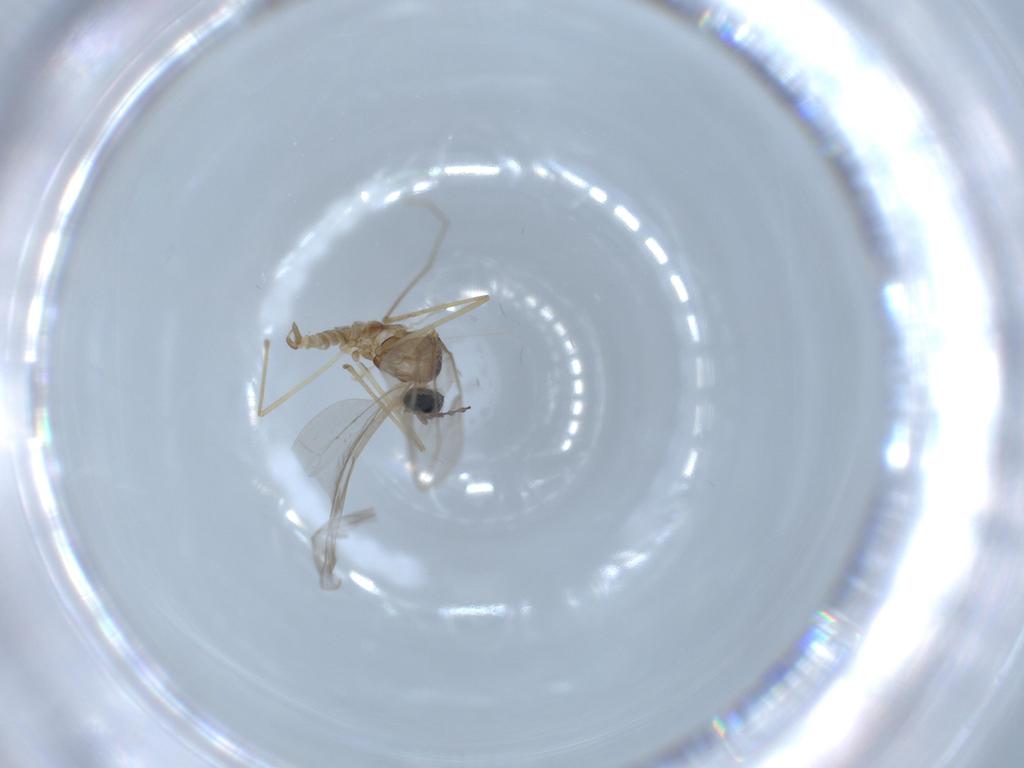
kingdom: Animalia
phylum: Arthropoda
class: Insecta
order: Diptera
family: Cecidomyiidae
